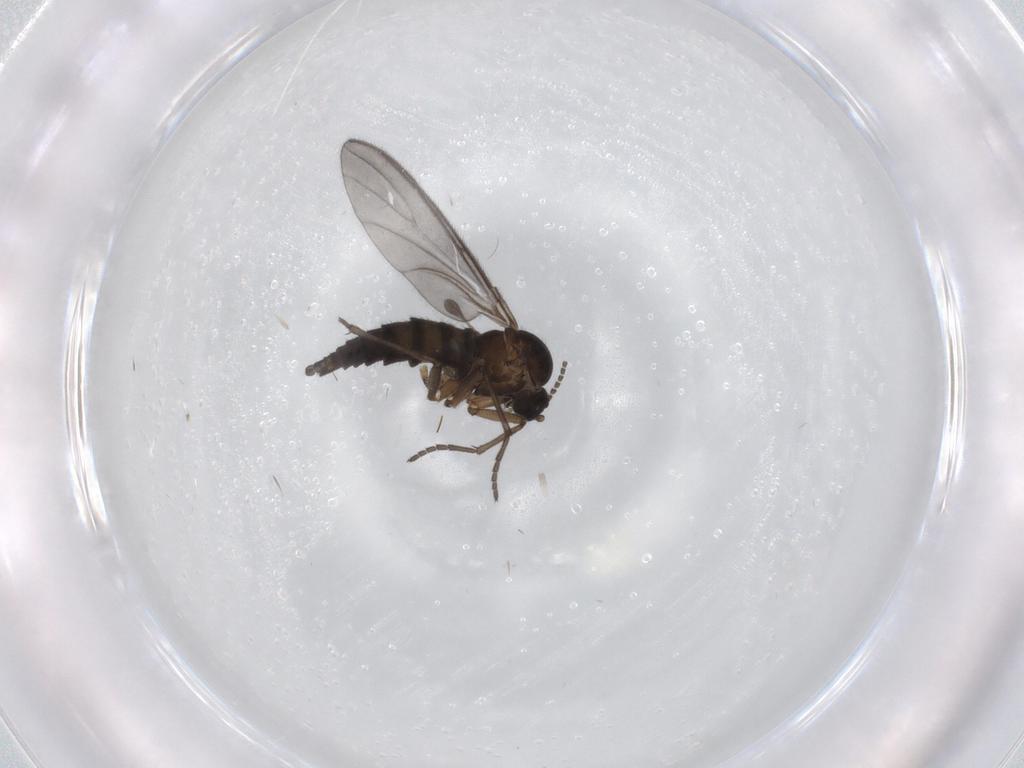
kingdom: Animalia
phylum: Arthropoda
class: Insecta
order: Diptera
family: Sciaridae
